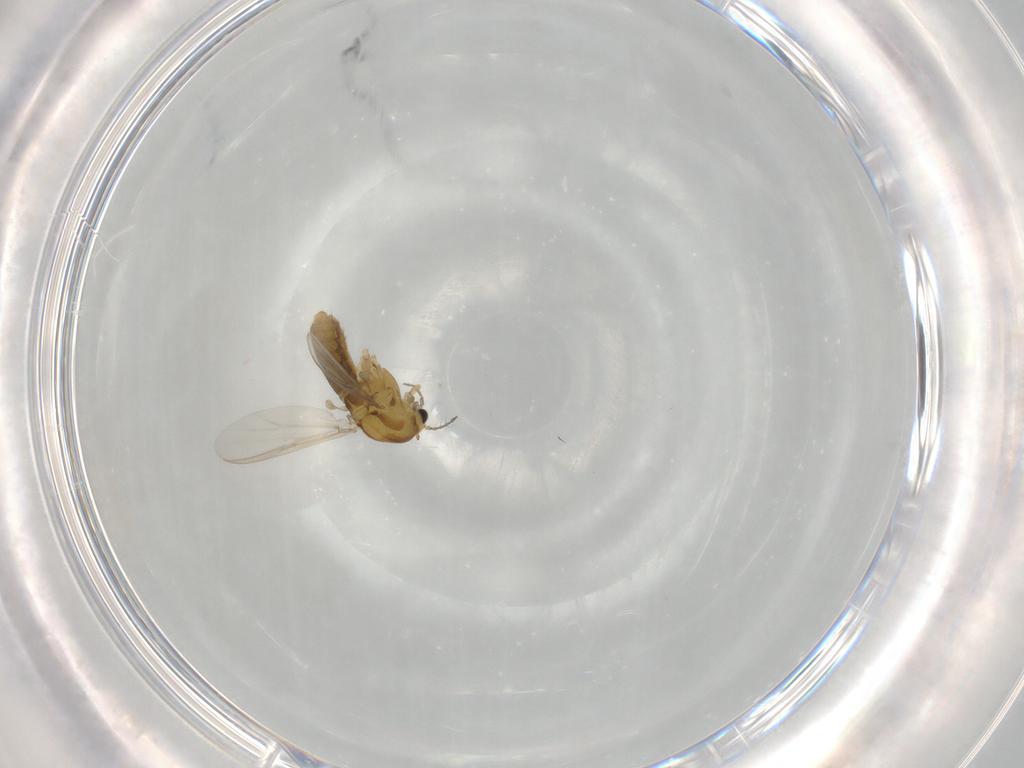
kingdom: Animalia
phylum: Arthropoda
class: Insecta
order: Diptera
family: Chironomidae
